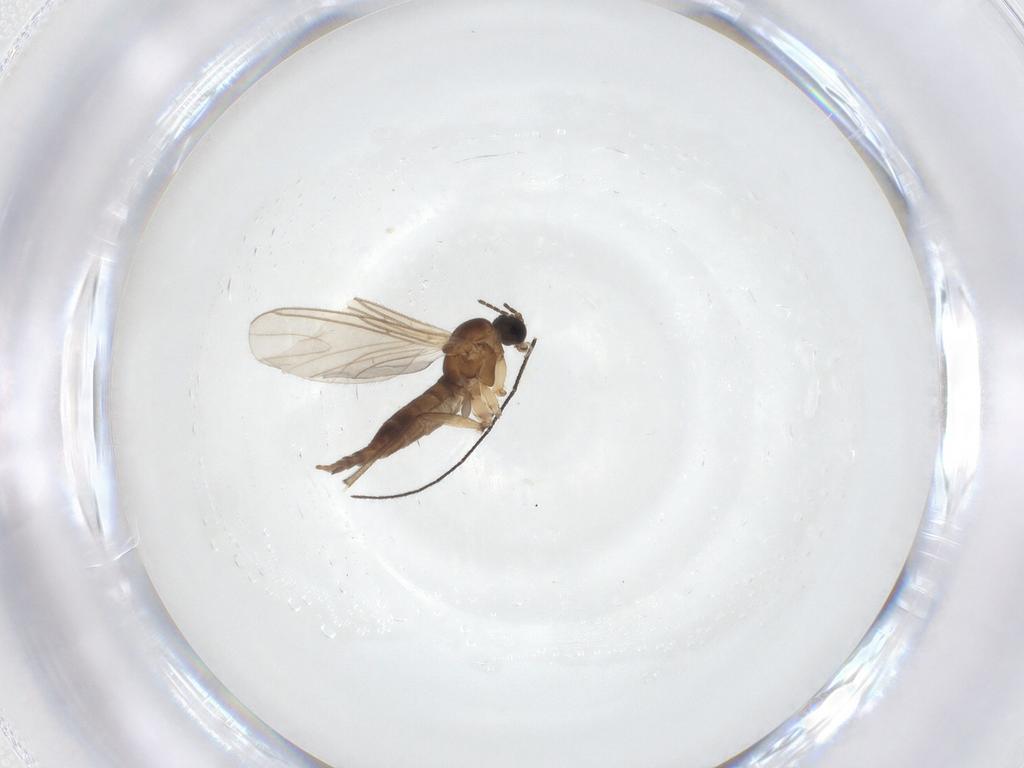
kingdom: Animalia
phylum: Arthropoda
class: Insecta
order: Diptera
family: Sciaridae
